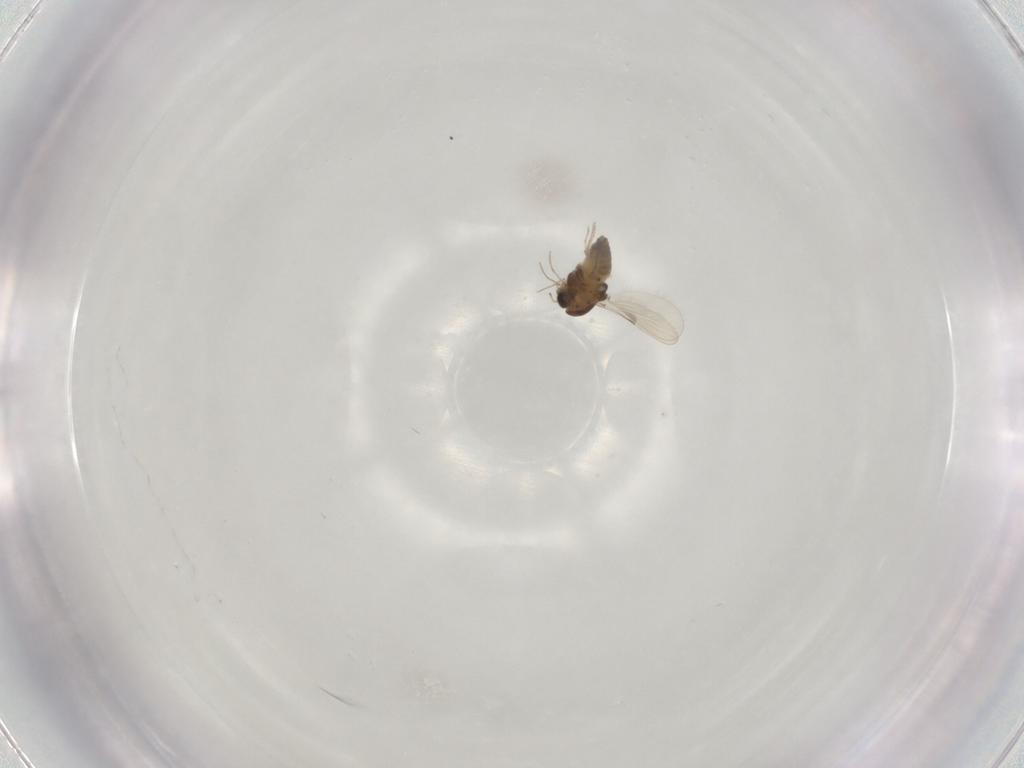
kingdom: Animalia
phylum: Arthropoda
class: Insecta
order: Diptera
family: Chironomidae
